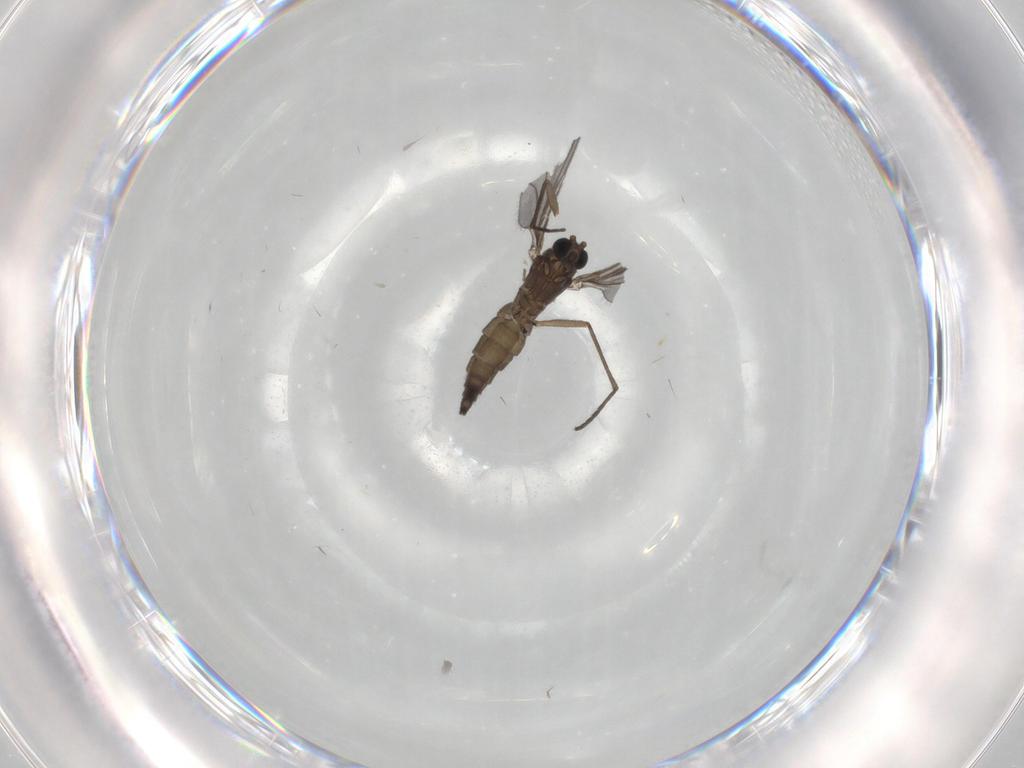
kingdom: Animalia
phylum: Arthropoda
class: Insecta
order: Diptera
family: Sciaridae
